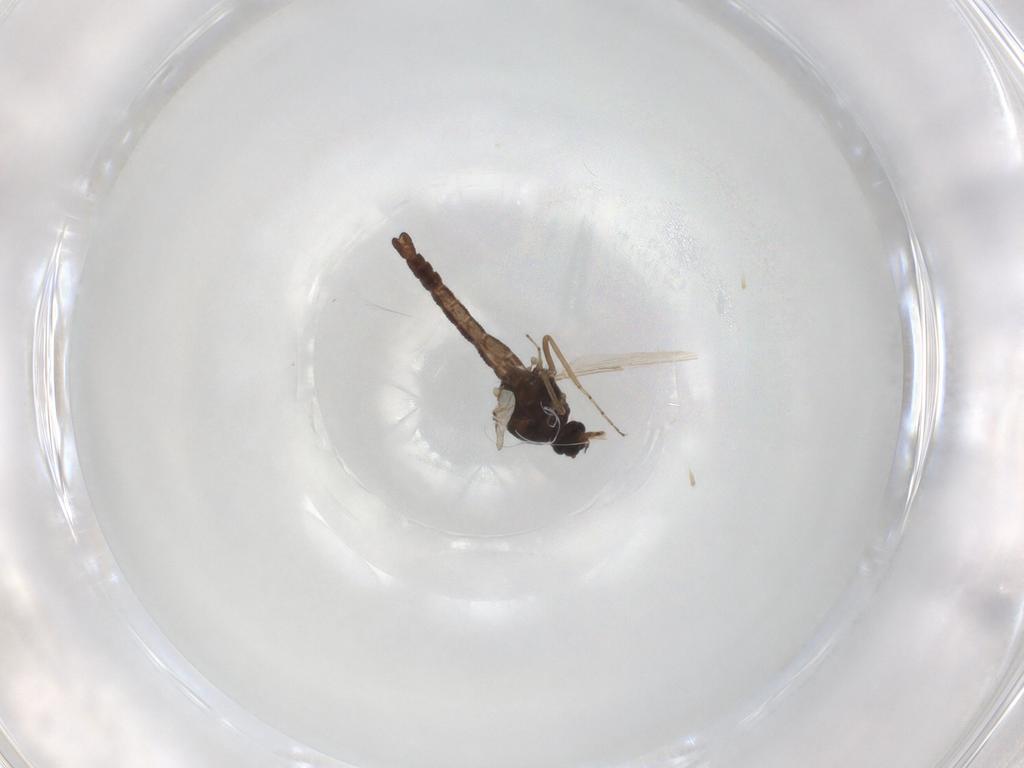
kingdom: Animalia
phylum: Arthropoda
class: Insecta
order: Diptera
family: Ceratopogonidae
